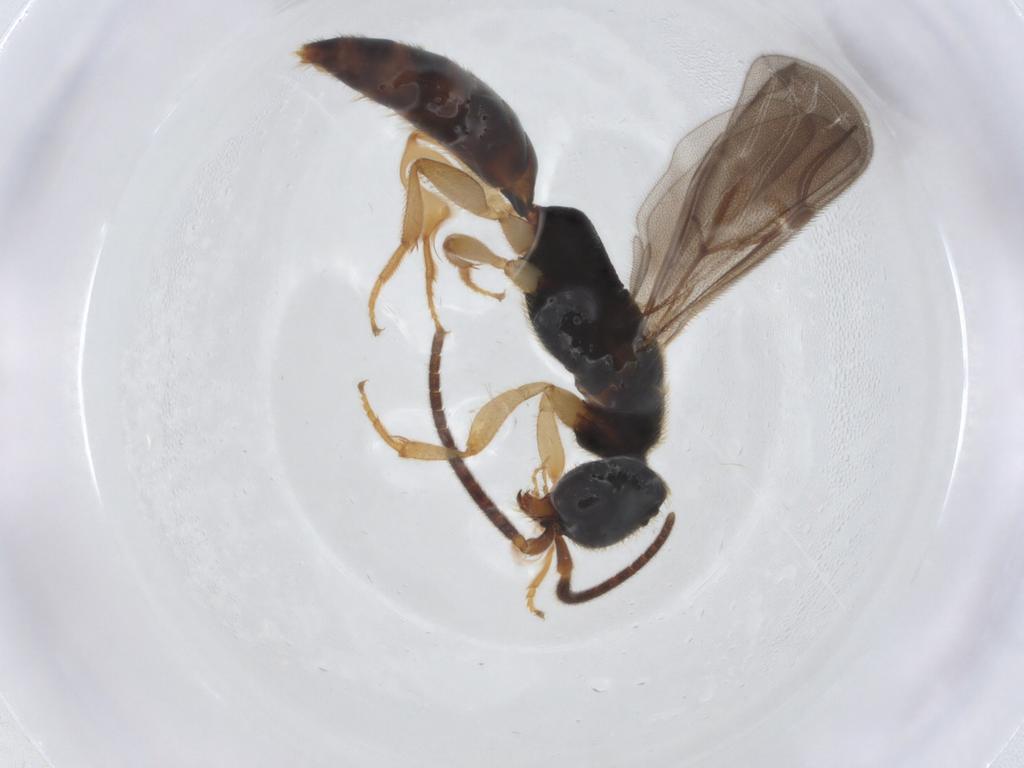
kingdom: Animalia
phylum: Arthropoda
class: Insecta
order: Hymenoptera
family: Bethylidae
